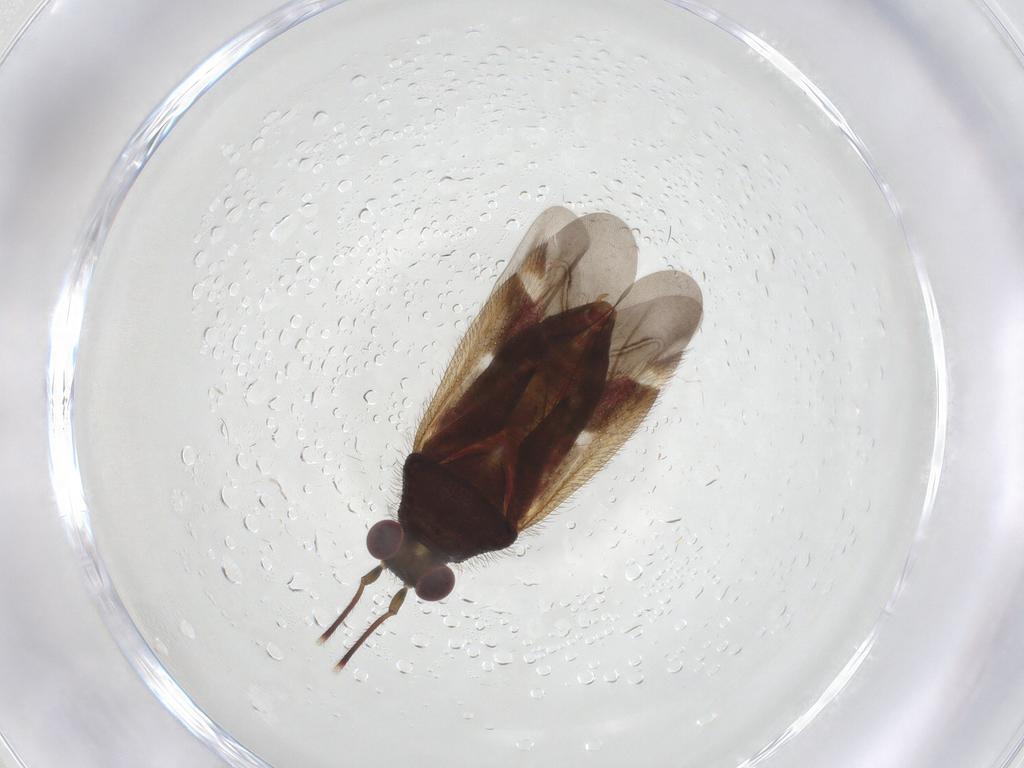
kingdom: Animalia
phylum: Arthropoda
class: Insecta
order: Hemiptera
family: Miridae
